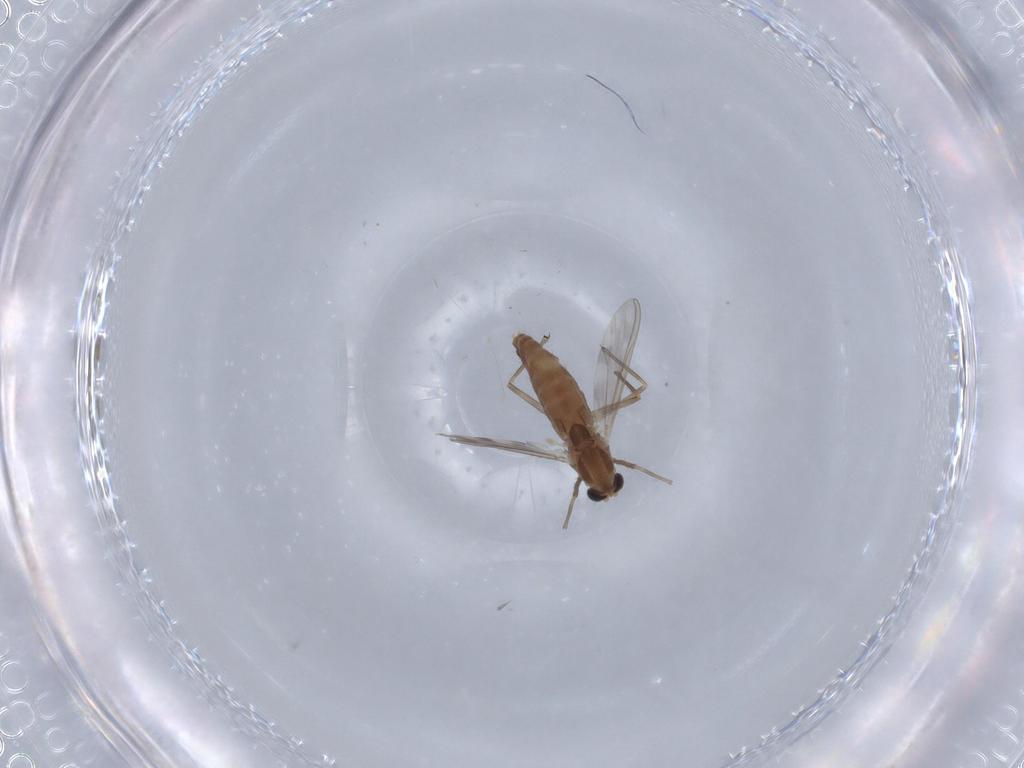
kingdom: Animalia
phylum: Arthropoda
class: Insecta
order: Diptera
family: Chironomidae
